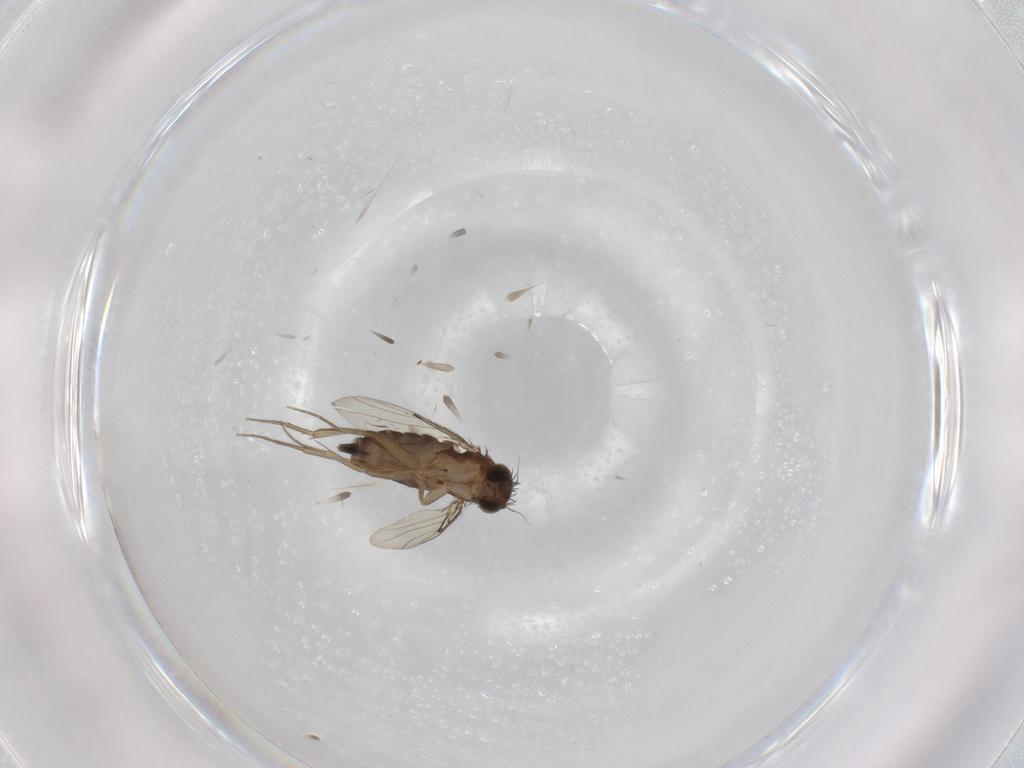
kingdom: Animalia
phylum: Arthropoda
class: Insecta
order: Diptera
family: Phoridae
